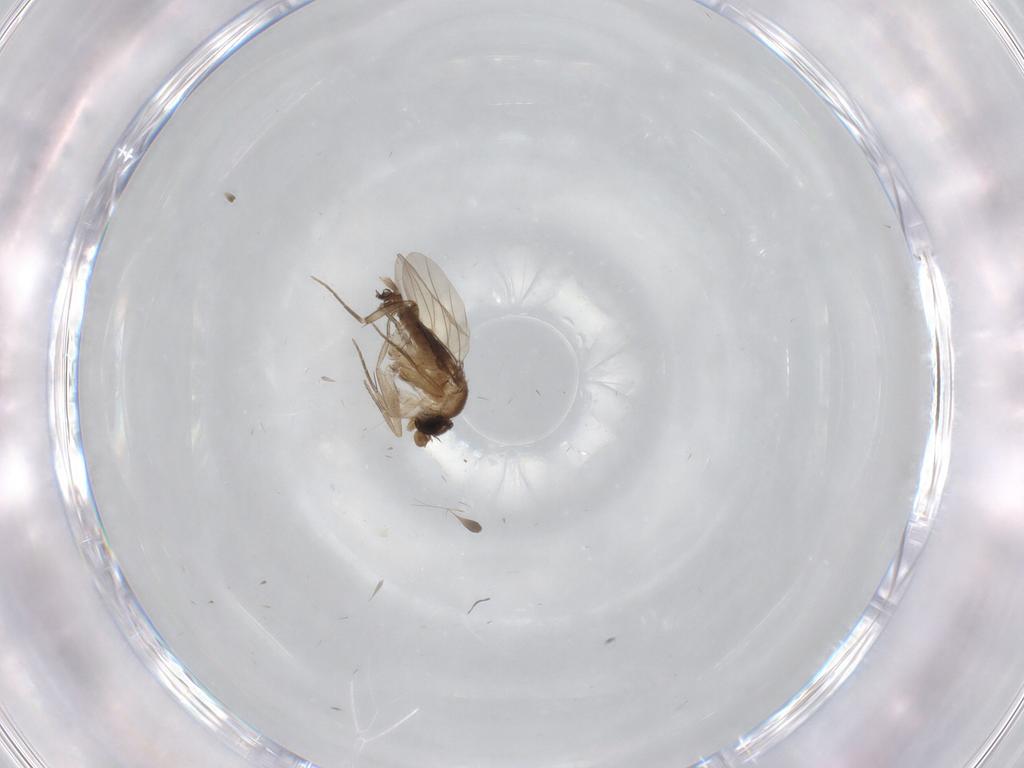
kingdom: Animalia
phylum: Arthropoda
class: Insecta
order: Diptera
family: Phoridae
